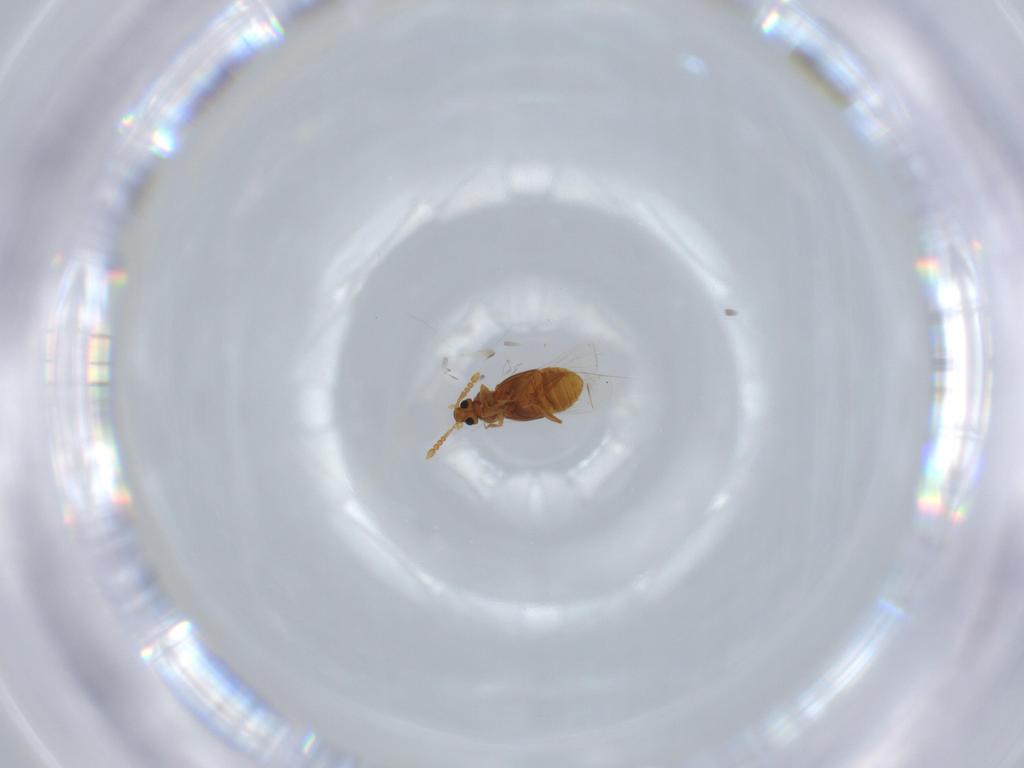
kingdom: Animalia
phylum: Arthropoda
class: Insecta
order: Coleoptera
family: Staphylinidae
